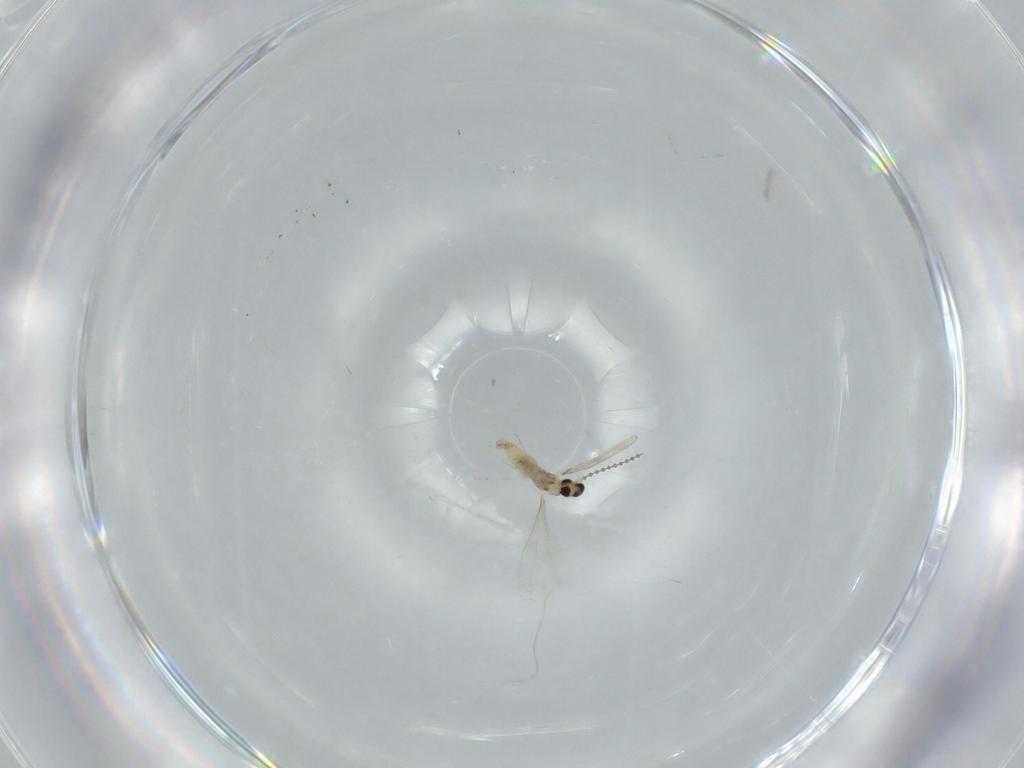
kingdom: Animalia
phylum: Arthropoda
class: Insecta
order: Diptera
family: Cecidomyiidae
